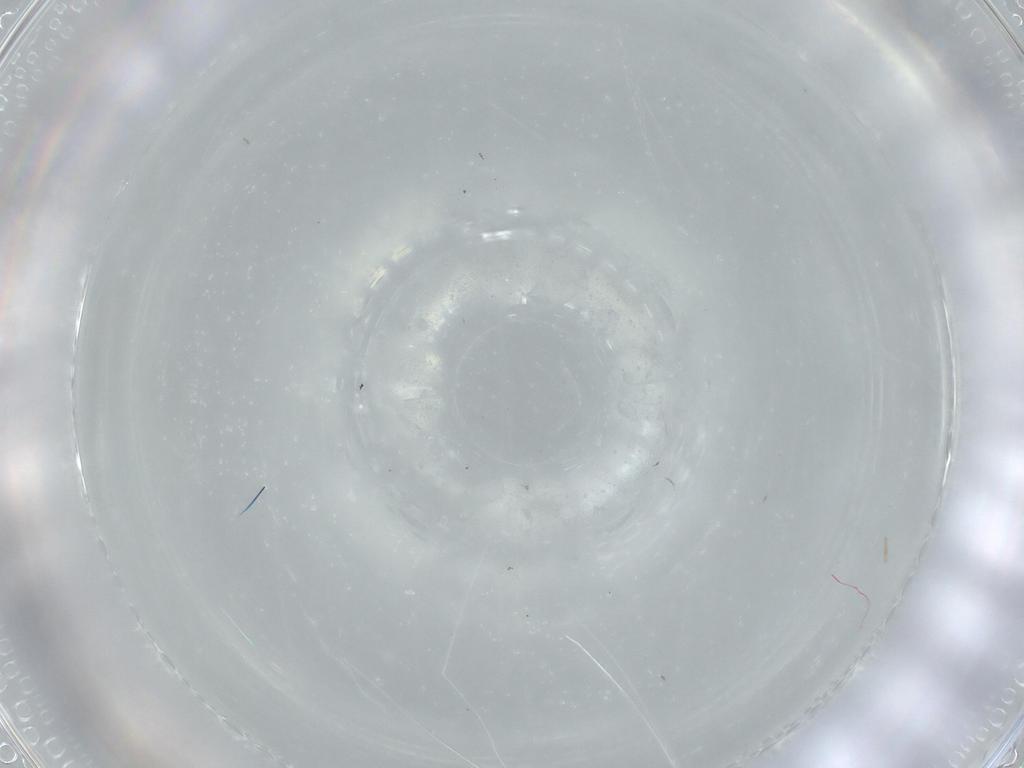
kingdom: Animalia
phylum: Arthropoda
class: Insecta
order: Diptera
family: Cecidomyiidae
